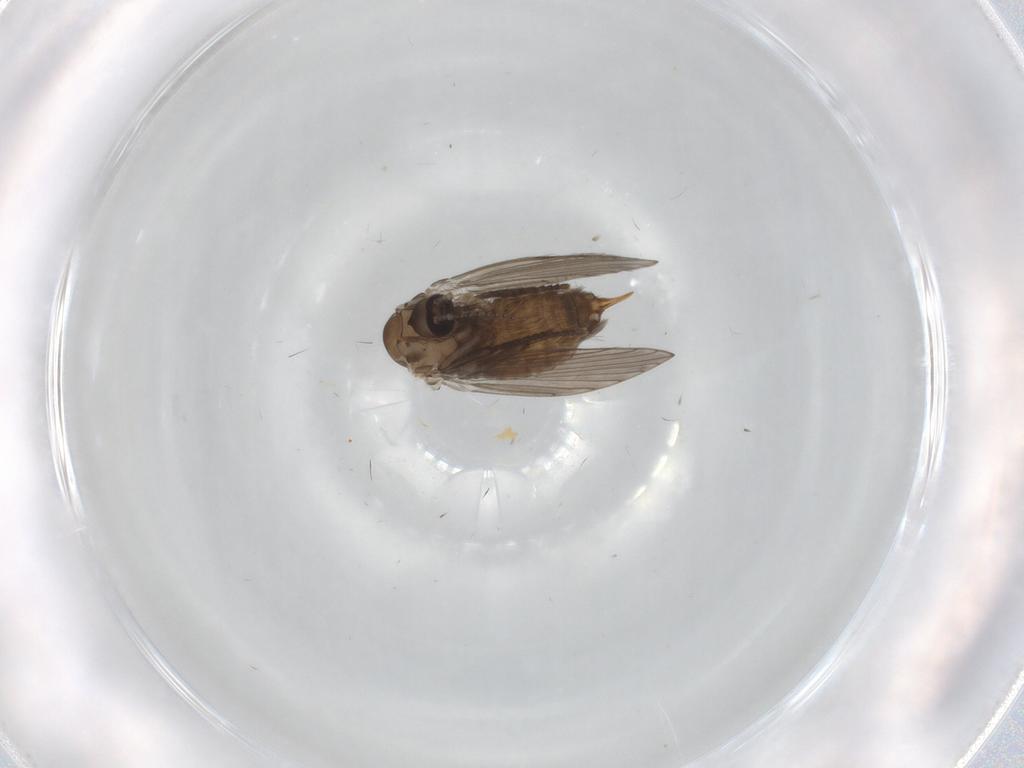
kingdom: Animalia
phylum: Arthropoda
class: Insecta
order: Diptera
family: Psychodidae
